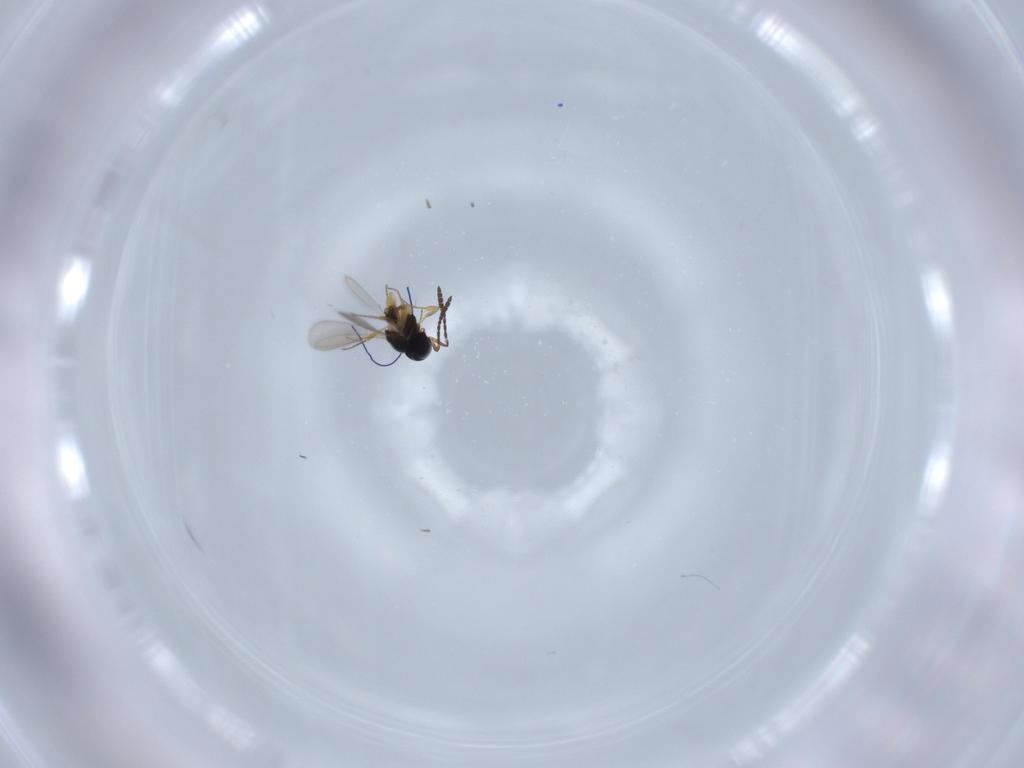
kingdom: Animalia
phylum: Arthropoda
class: Insecta
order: Hymenoptera
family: Scelionidae
